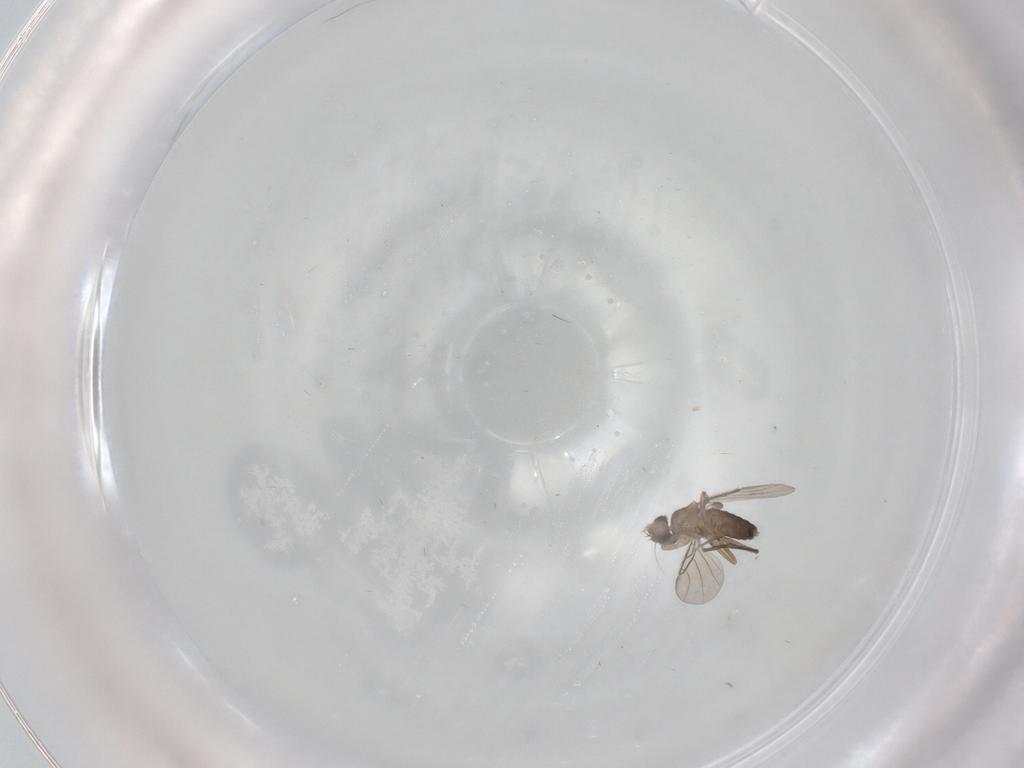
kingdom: Animalia
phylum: Arthropoda
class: Insecta
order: Diptera
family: Phoridae
